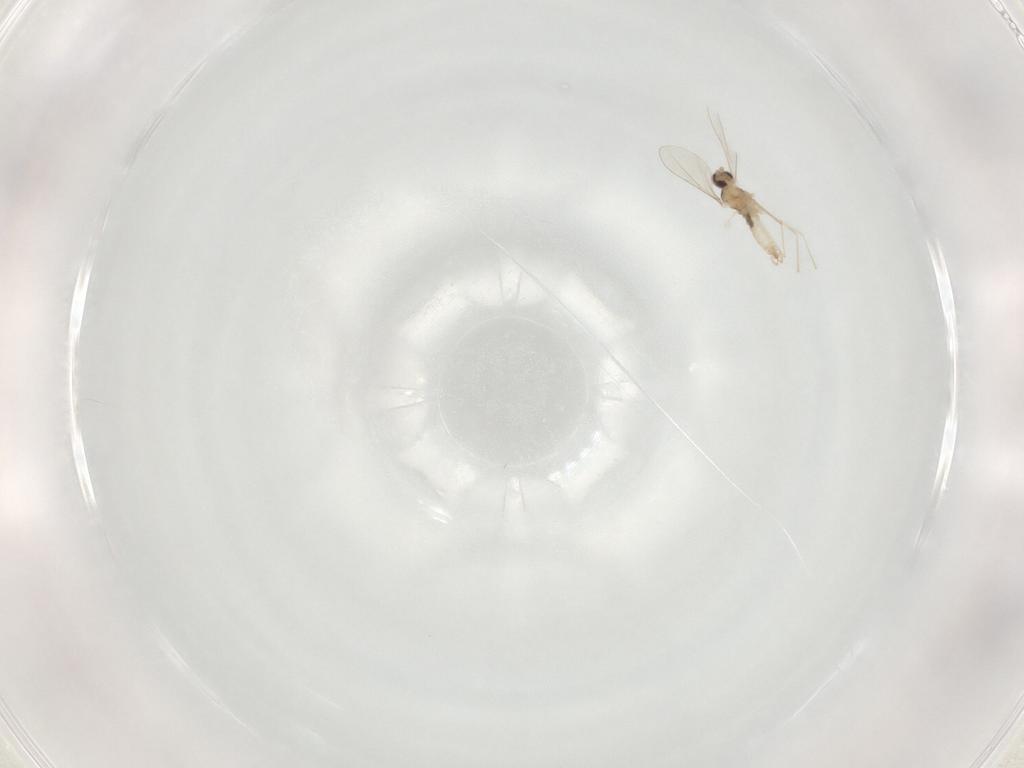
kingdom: Animalia
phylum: Arthropoda
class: Insecta
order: Diptera
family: Cecidomyiidae
